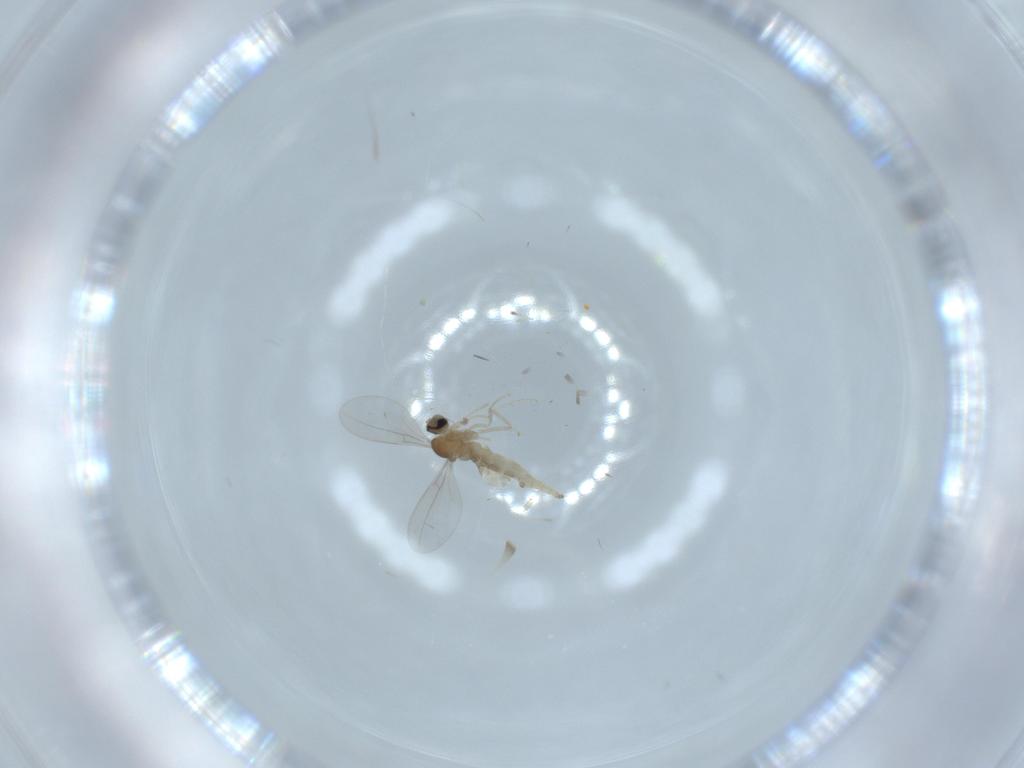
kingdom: Animalia
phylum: Arthropoda
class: Insecta
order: Diptera
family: Cecidomyiidae
